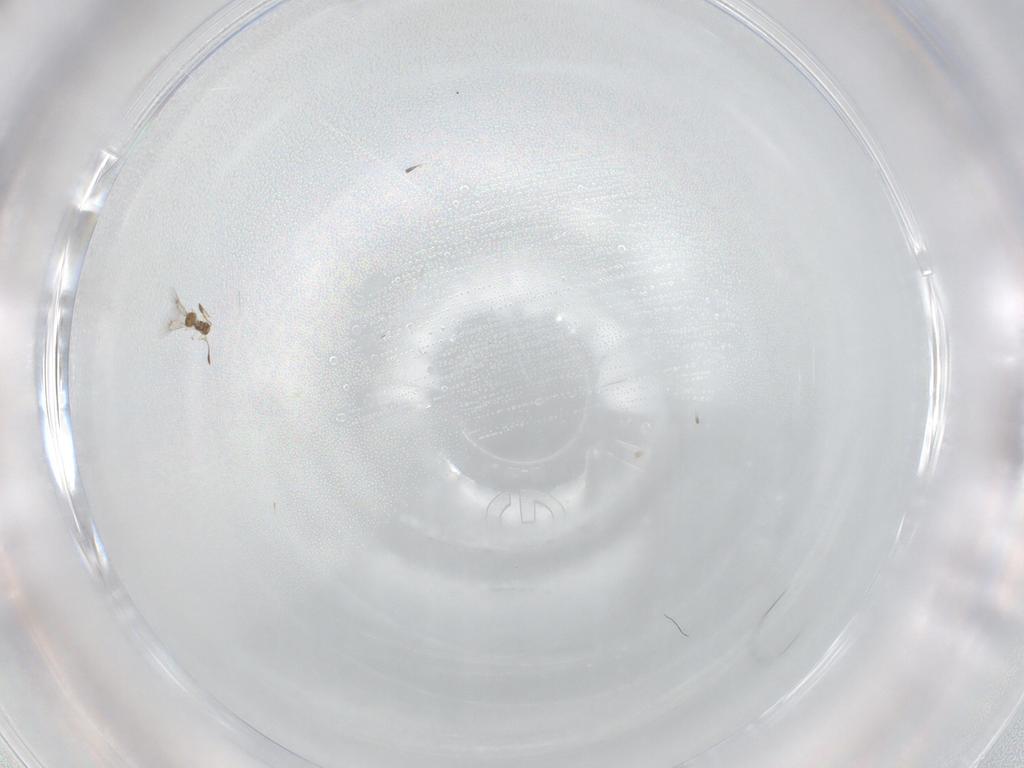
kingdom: Animalia
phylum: Arthropoda
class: Insecta
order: Hymenoptera
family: Mymarommatidae
